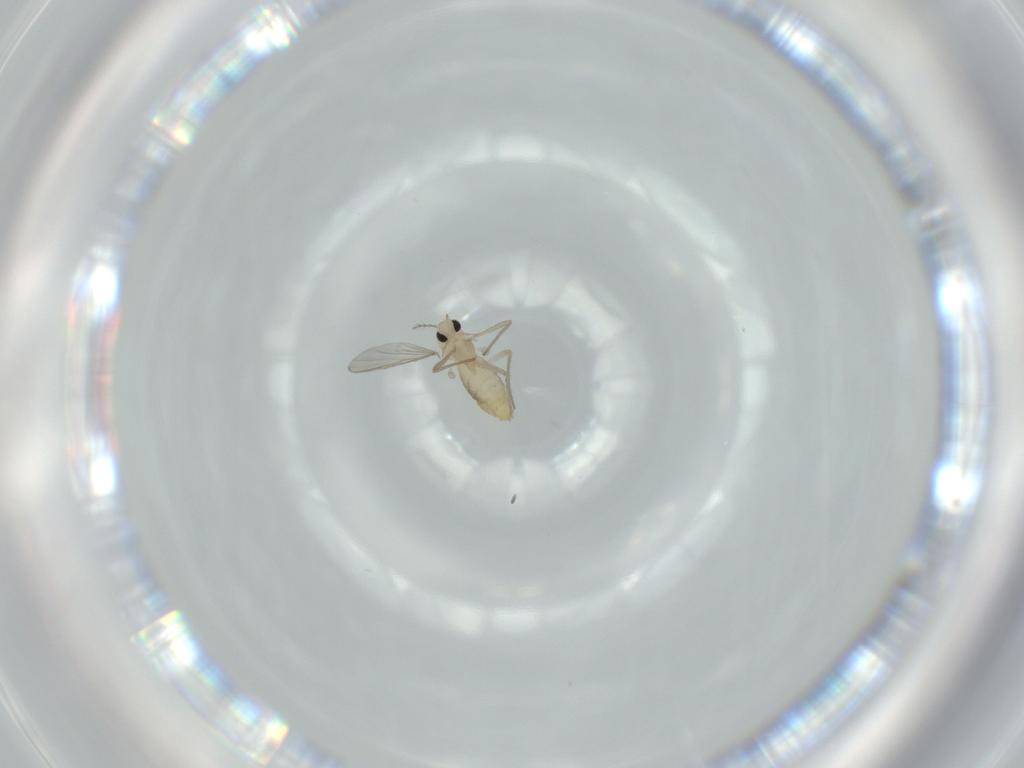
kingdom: Animalia
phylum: Arthropoda
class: Insecta
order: Diptera
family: Chironomidae
